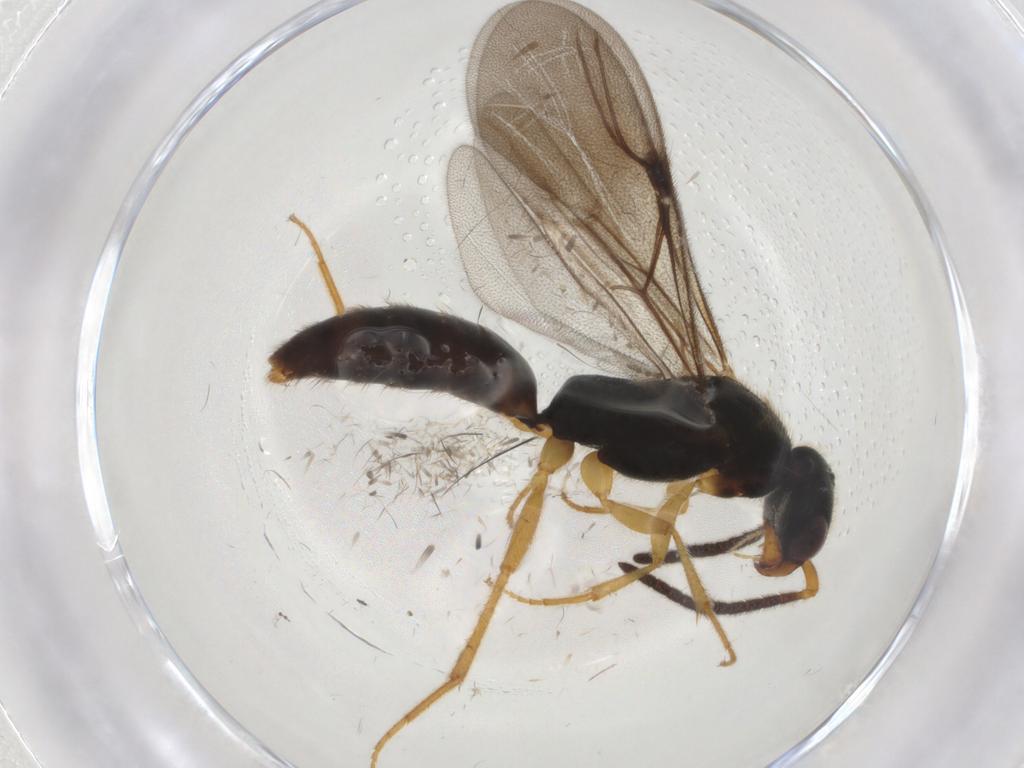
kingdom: Animalia
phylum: Arthropoda
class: Insecta
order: Hymenoptera
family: Bethylidae
